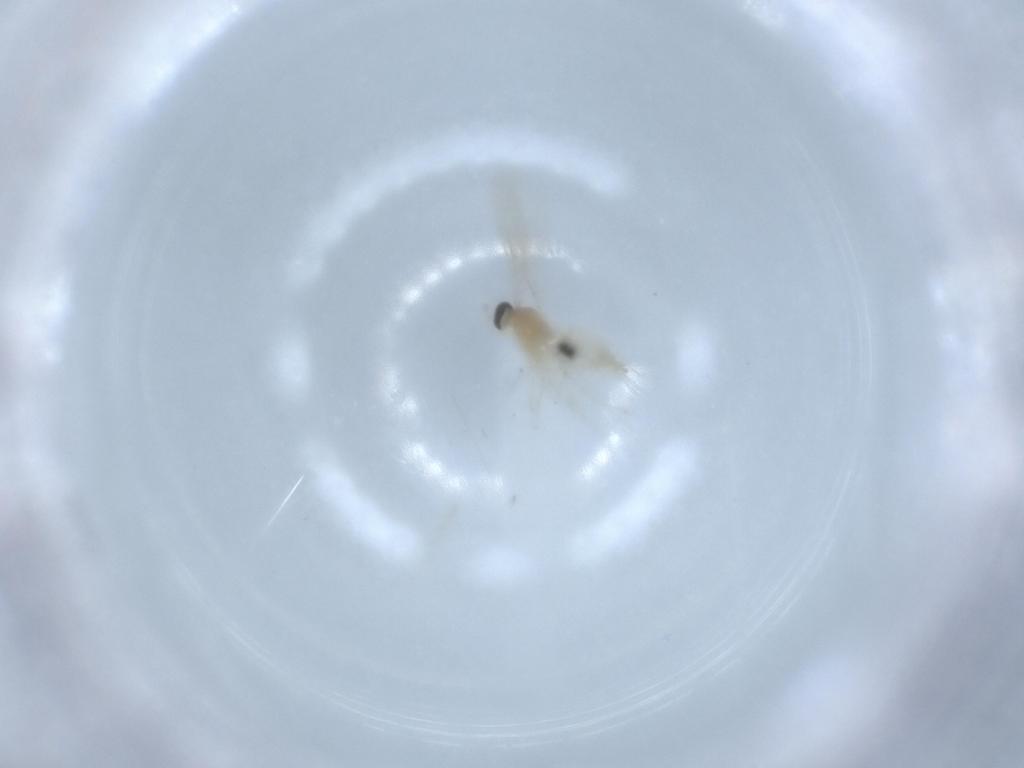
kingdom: Animalia
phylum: Arthropoda
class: Insecta
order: Diptera
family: Cecidomyiidae
